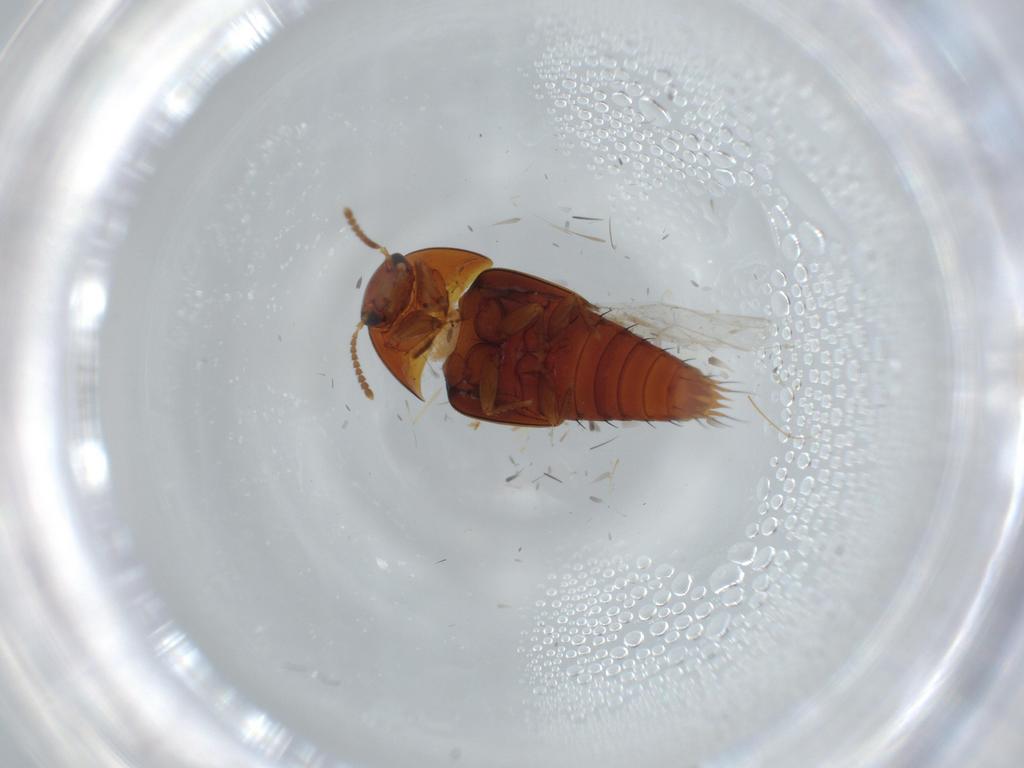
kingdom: Animalia
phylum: Arthropoda
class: Insecta
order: Coleoptera
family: Staphylinidae
